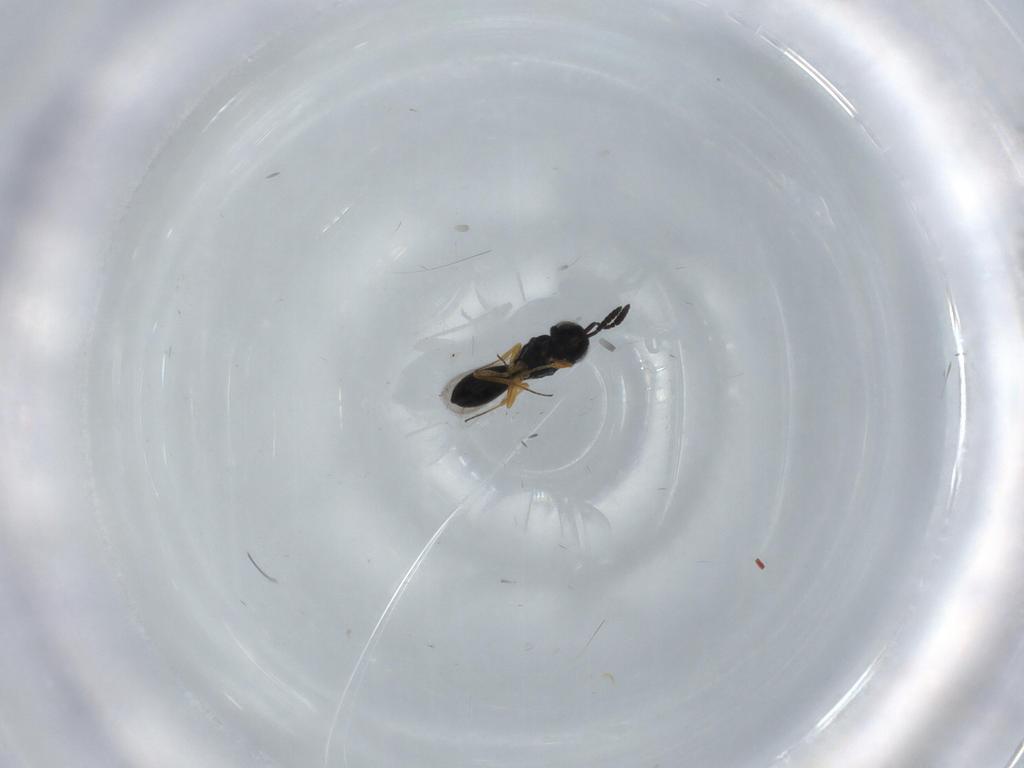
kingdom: Animalia
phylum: Arthropoda
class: Insecta
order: Hymenoptera
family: Scelionidae
